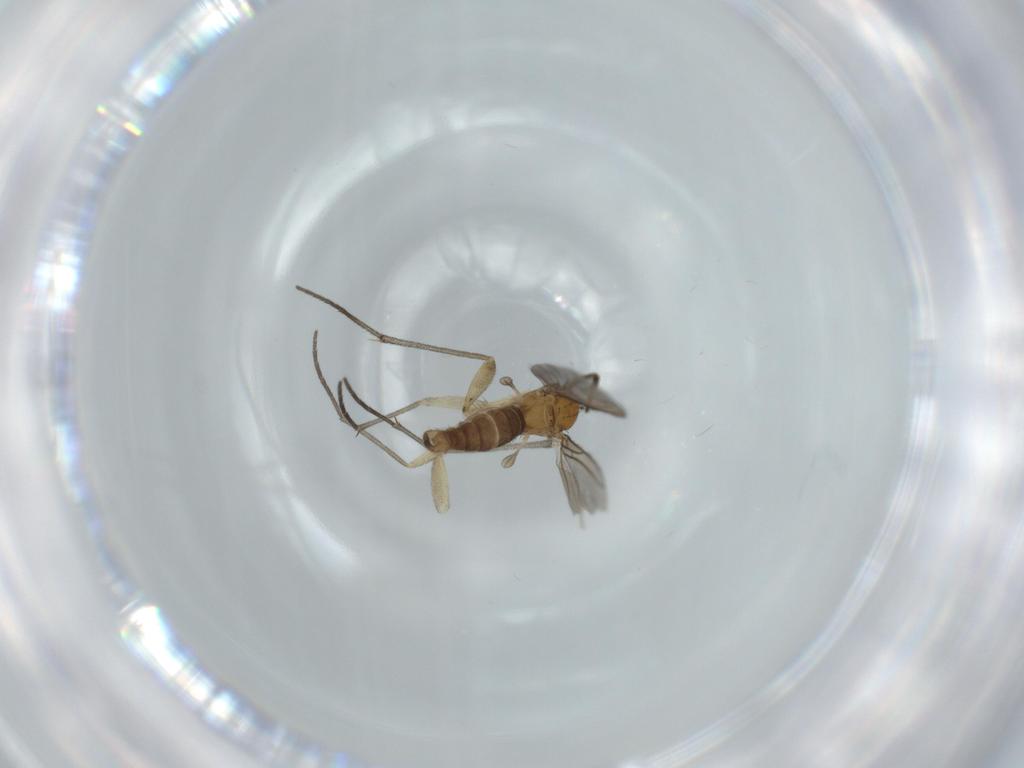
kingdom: Animalia
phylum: Arthropoda
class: Insecta
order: Diptera
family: Sciaridae
